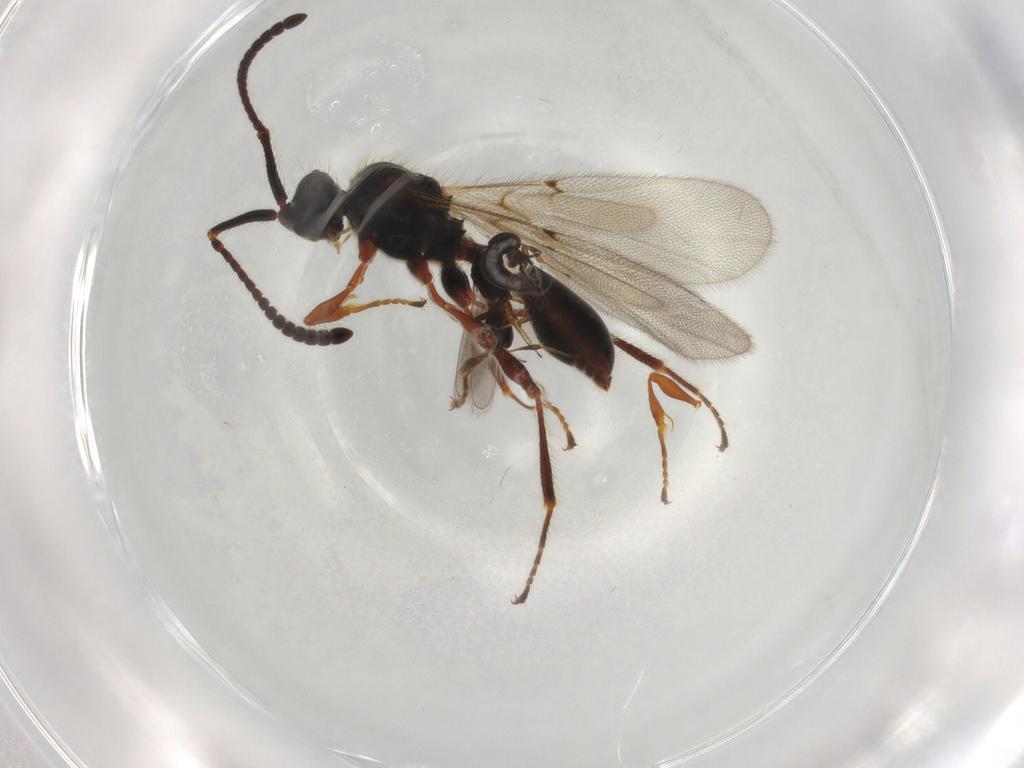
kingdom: Animalia
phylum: Arthropoda
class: Insecta
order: Hymenoptera
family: Diapriidae
